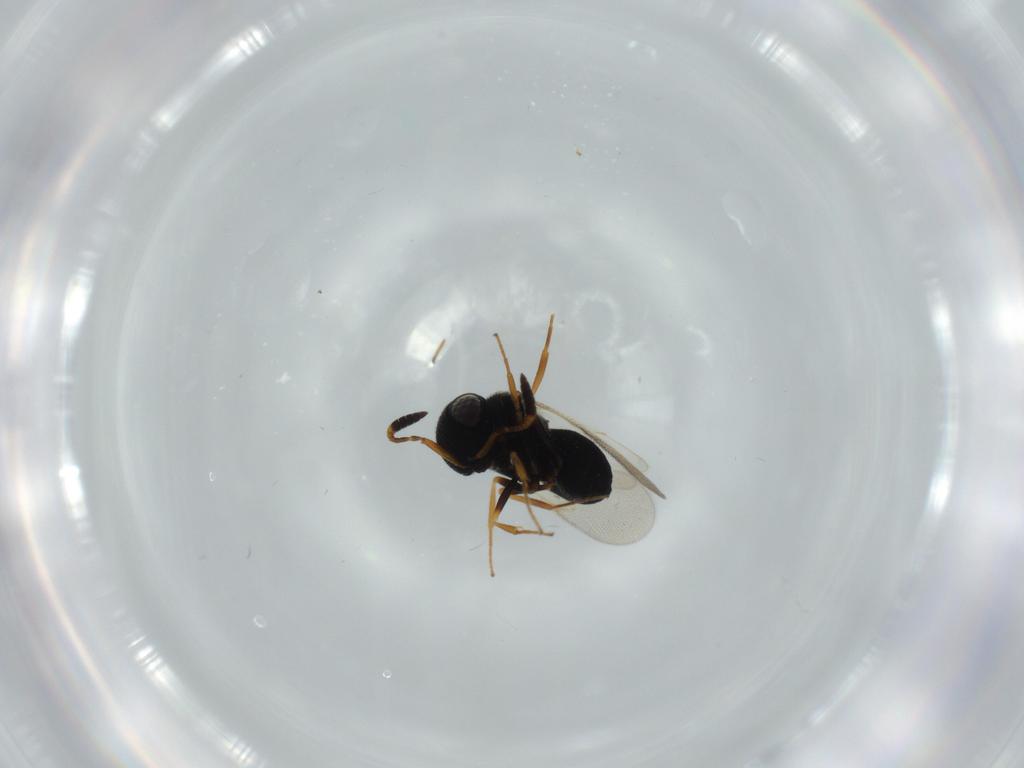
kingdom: Animalia
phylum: Arthropoda
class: Insecta
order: Hymenoptera
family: Scelionidae
